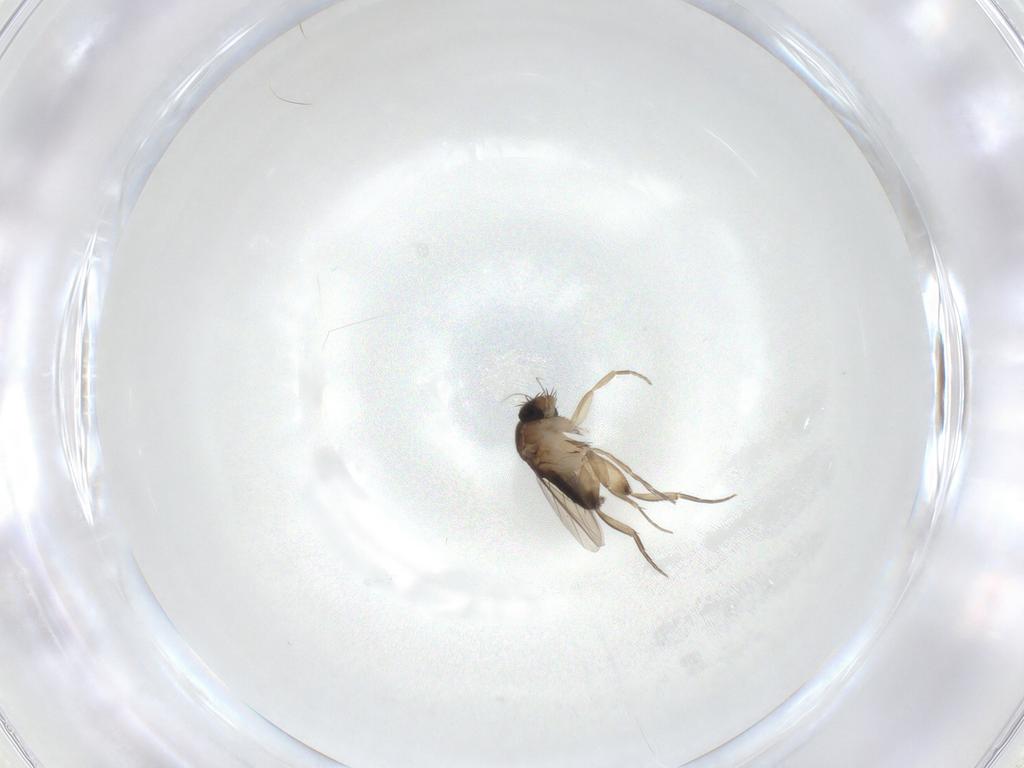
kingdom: Animalia
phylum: Arthropoda
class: Insecta
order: Diptera
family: Phoridae
